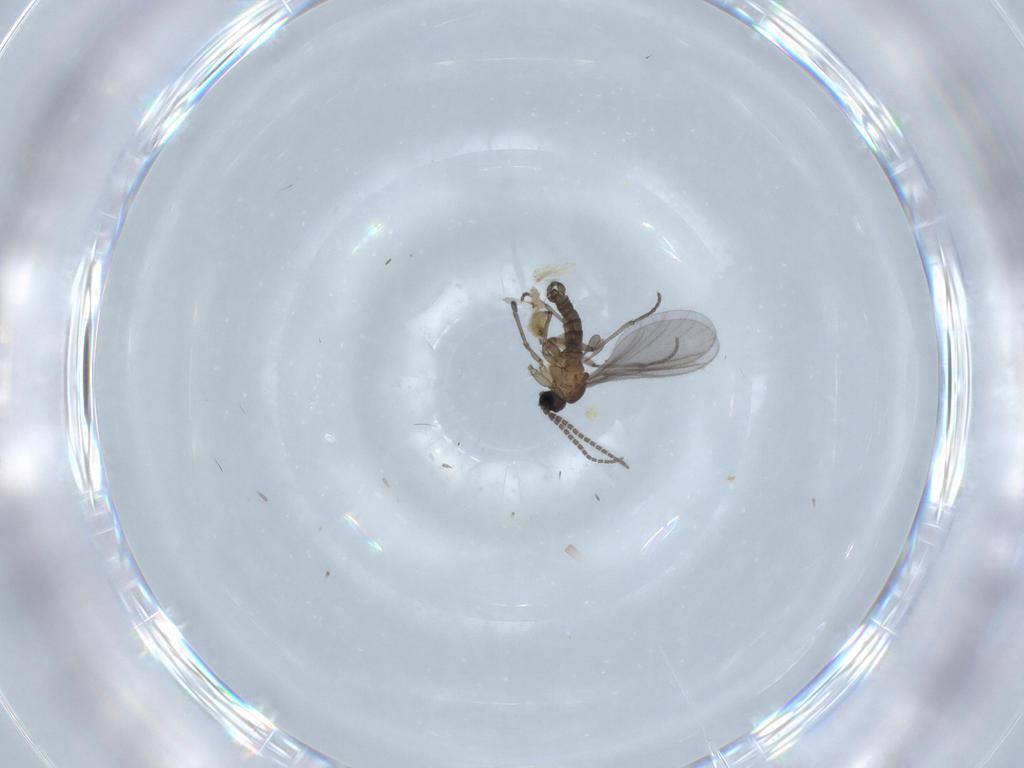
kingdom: Animalia
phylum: Arthropoda
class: Insecta
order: Diptera
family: Sciaridae
